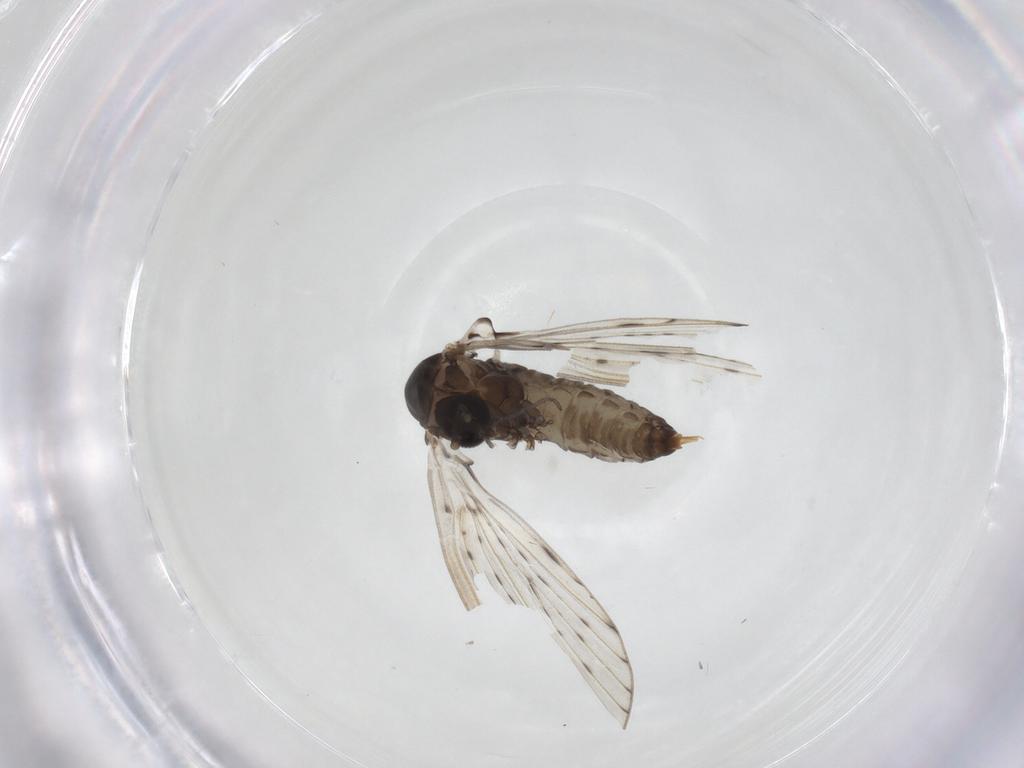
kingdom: Animalia
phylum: Arthropoda
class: Insecta
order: Diptera
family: Psychodidae
